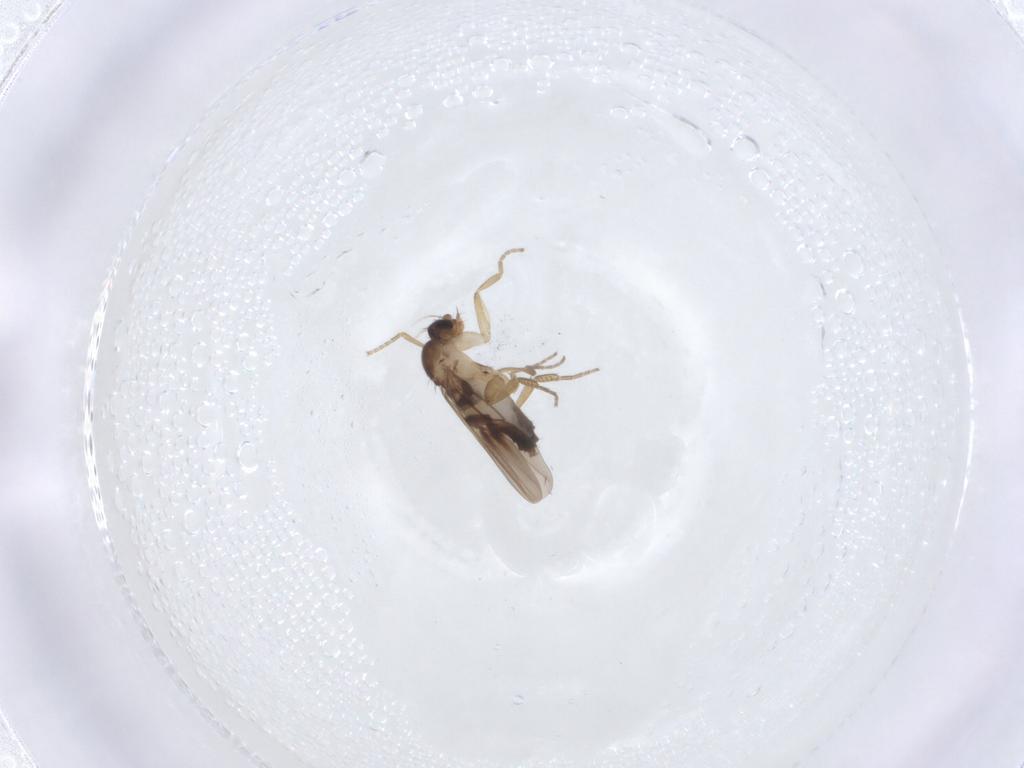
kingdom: Animalia
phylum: Arthropoda
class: Insecta
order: Diptera
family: Phoridae
